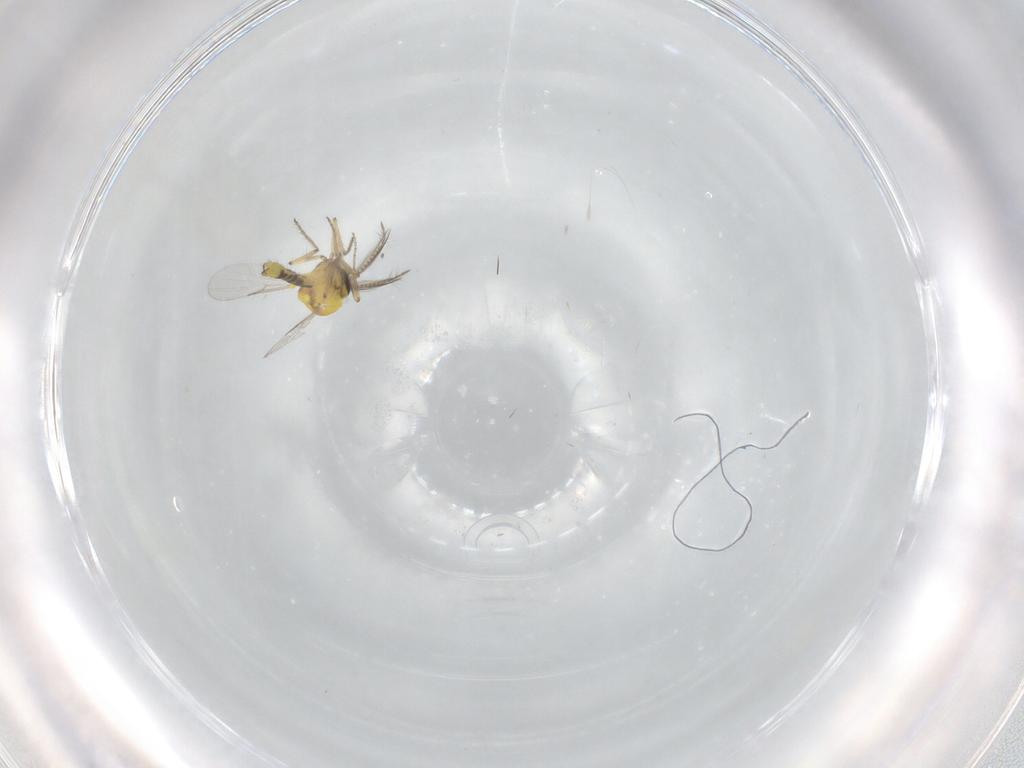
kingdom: Animalia
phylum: Arthropoda
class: Insecta
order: Diptera
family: Ceratopogonidae
